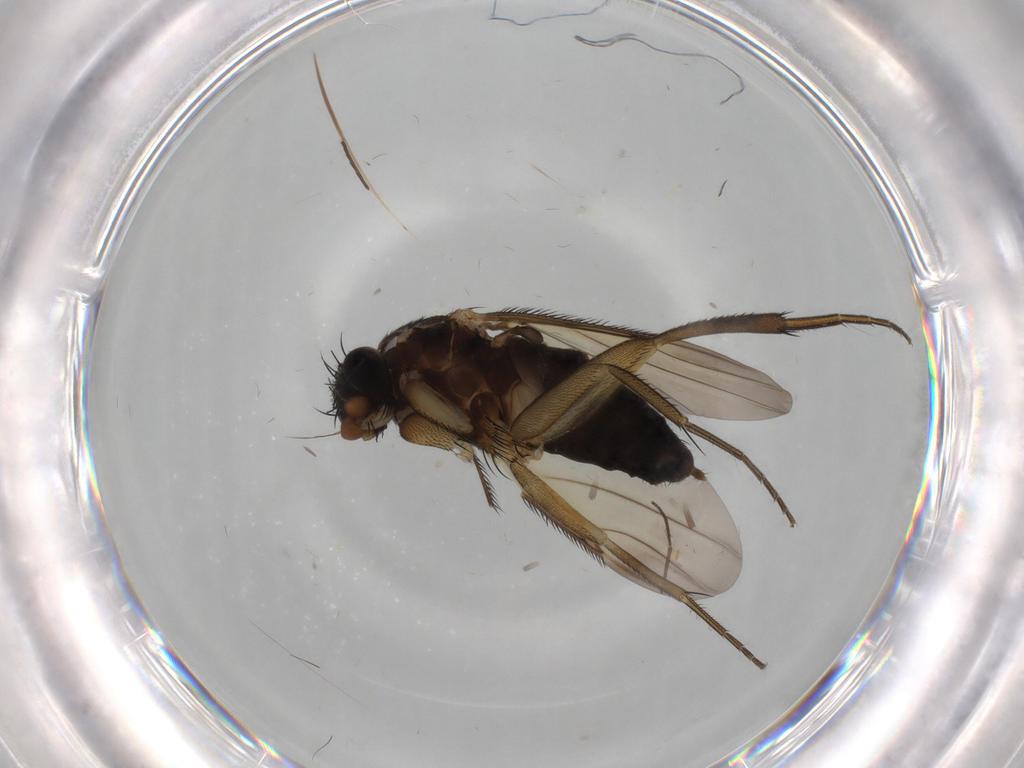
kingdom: Animalia
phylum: Arthropoda
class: Insecta
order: Diptera
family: Phoridae
